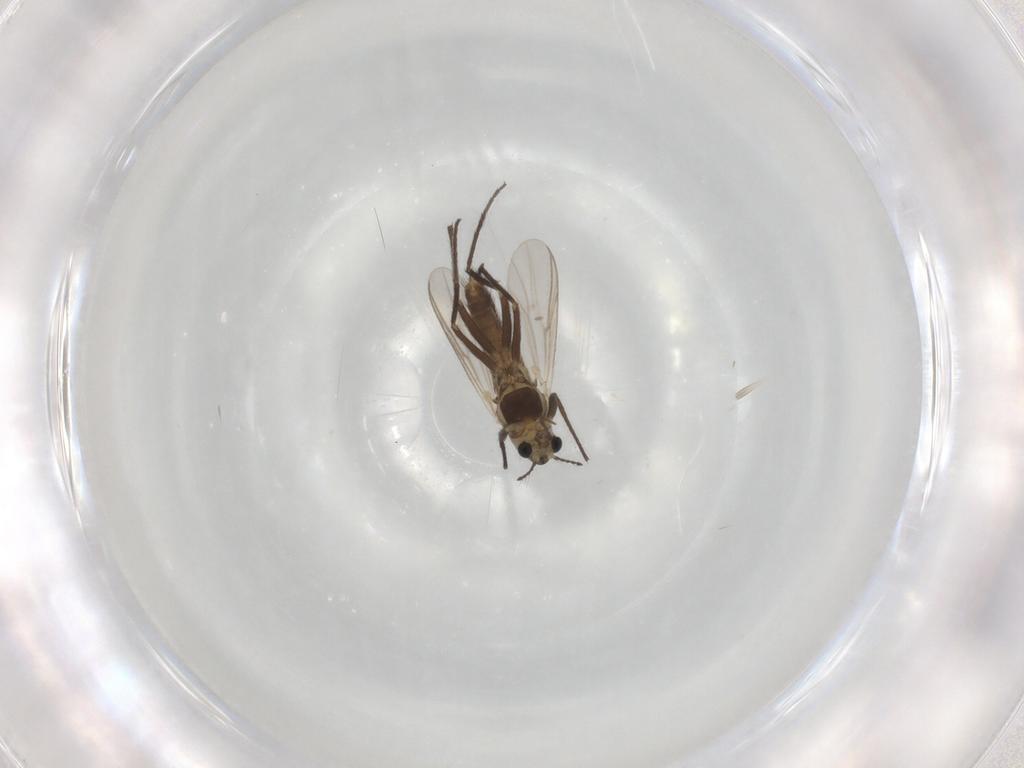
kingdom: Animalia
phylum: Arthropoda
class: Insecta
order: Diptera
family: Chironomidae
